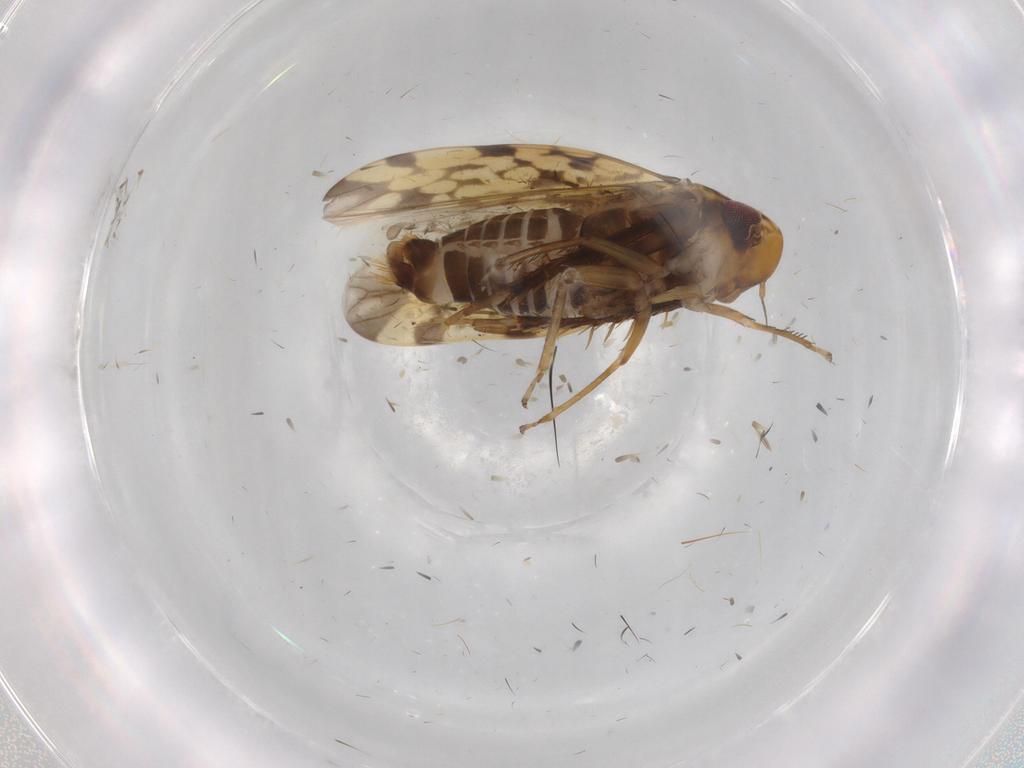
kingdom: Animalia
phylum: Arthropoda
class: Insecta
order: Hemiptera
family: Cicadellidae
